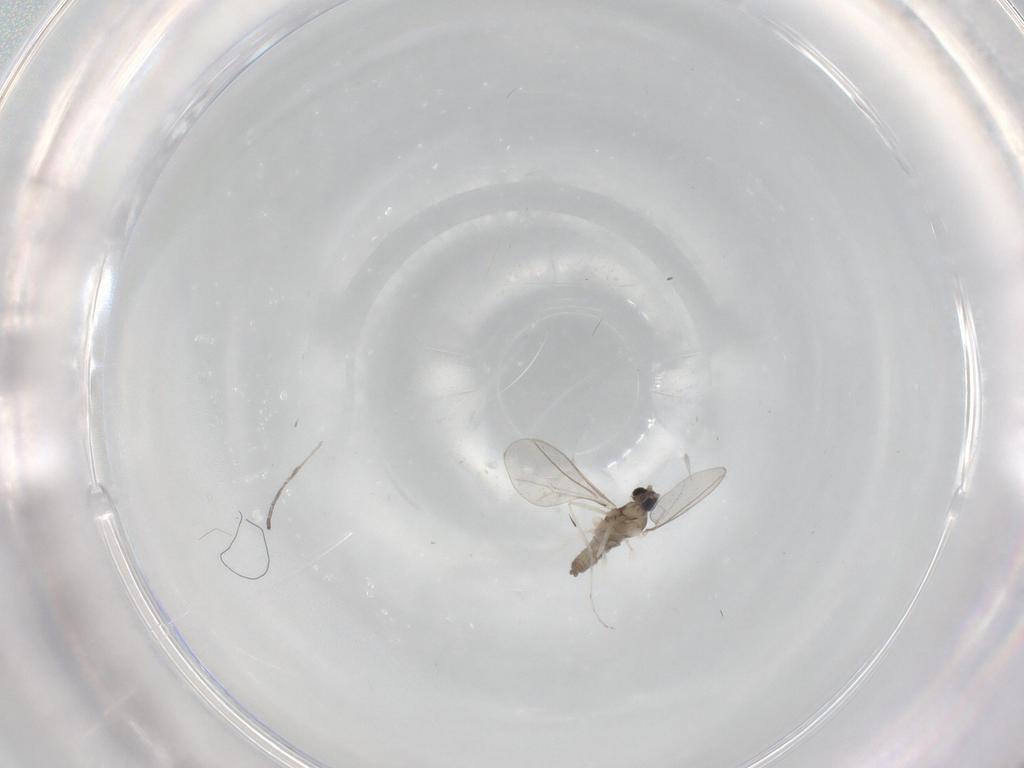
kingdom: Animalia
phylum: Arthropoda
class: Insecta
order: Diptera
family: Cecidomyiidae
